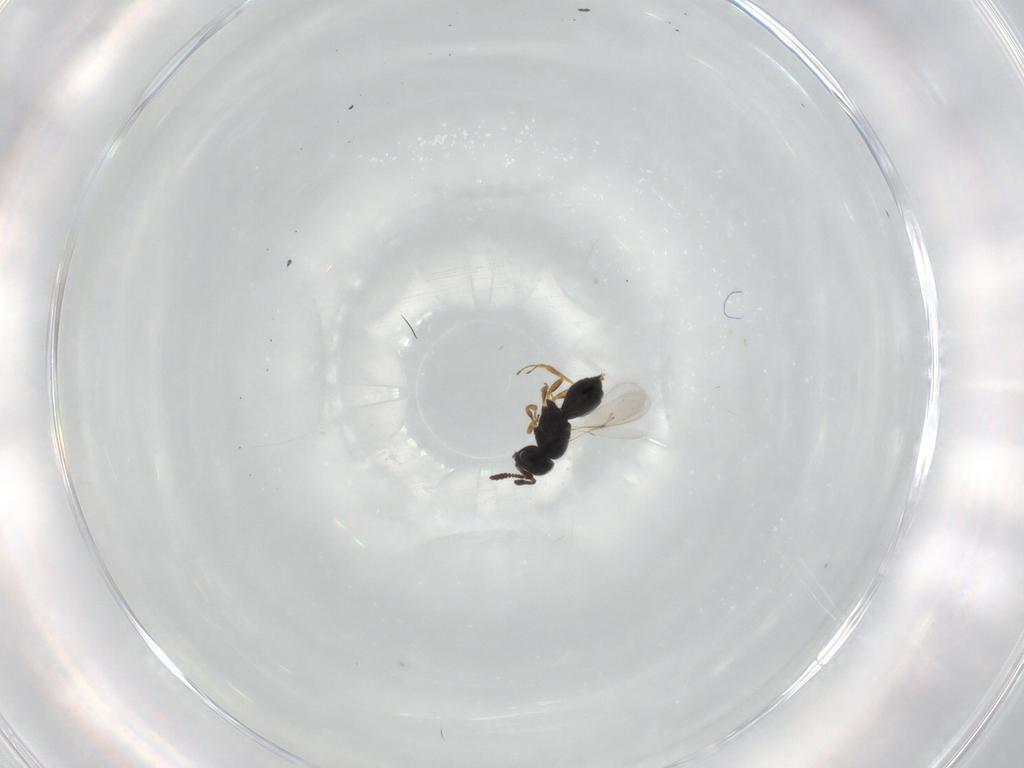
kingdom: Animalia
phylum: Arthropoda
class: Insecta
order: Hymenoptera
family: Scelionidae
